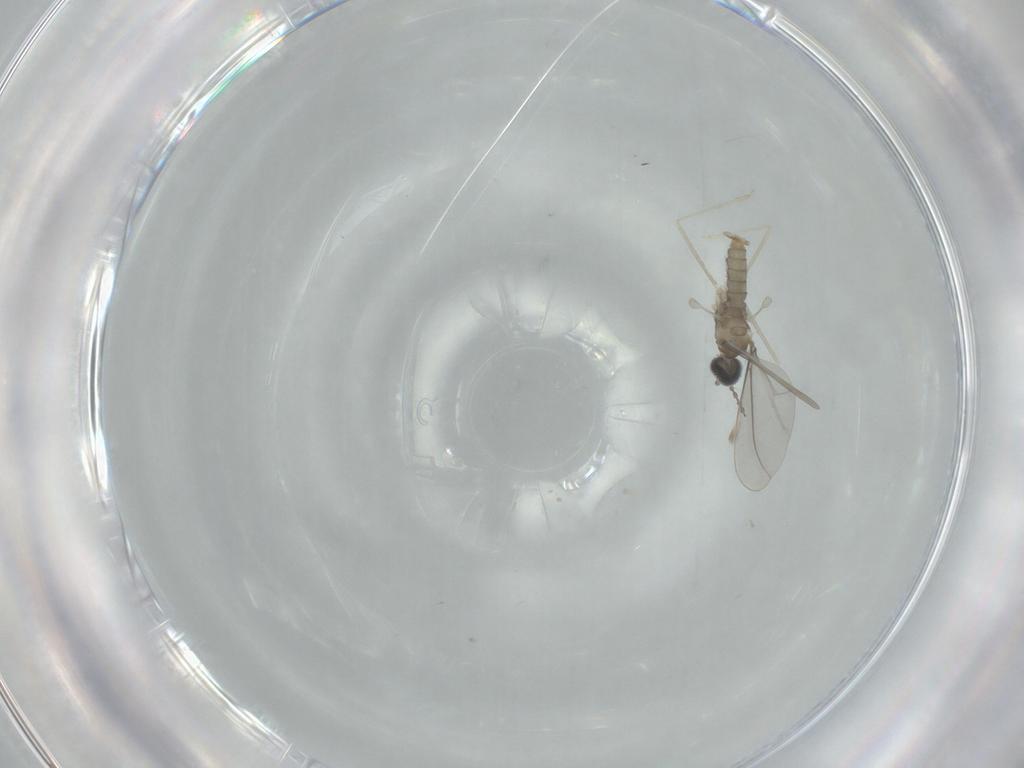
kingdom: Animalia
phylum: Arthropoda
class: Insecta
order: Diptera
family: Cecidomyiidae
